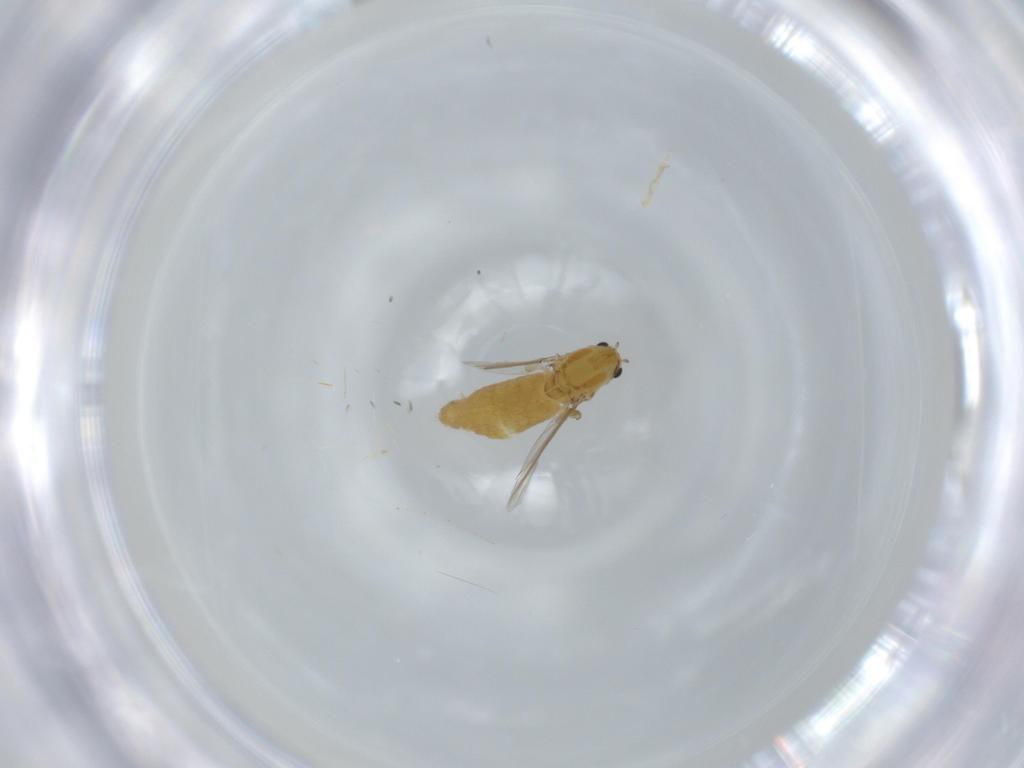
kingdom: Animalia
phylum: Arthropoda
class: Insecta
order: Diptera
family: Chironomidae
